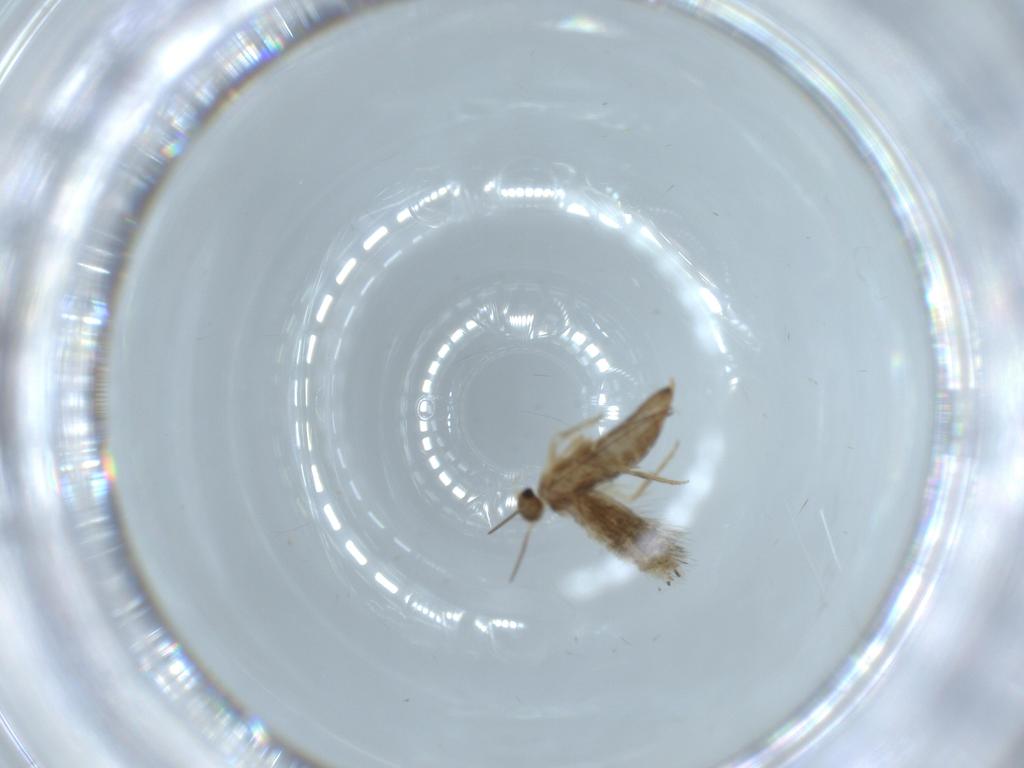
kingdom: Animalia
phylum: Arthropoda
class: Insecta
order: Lepidoptera
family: Heliozelidae
